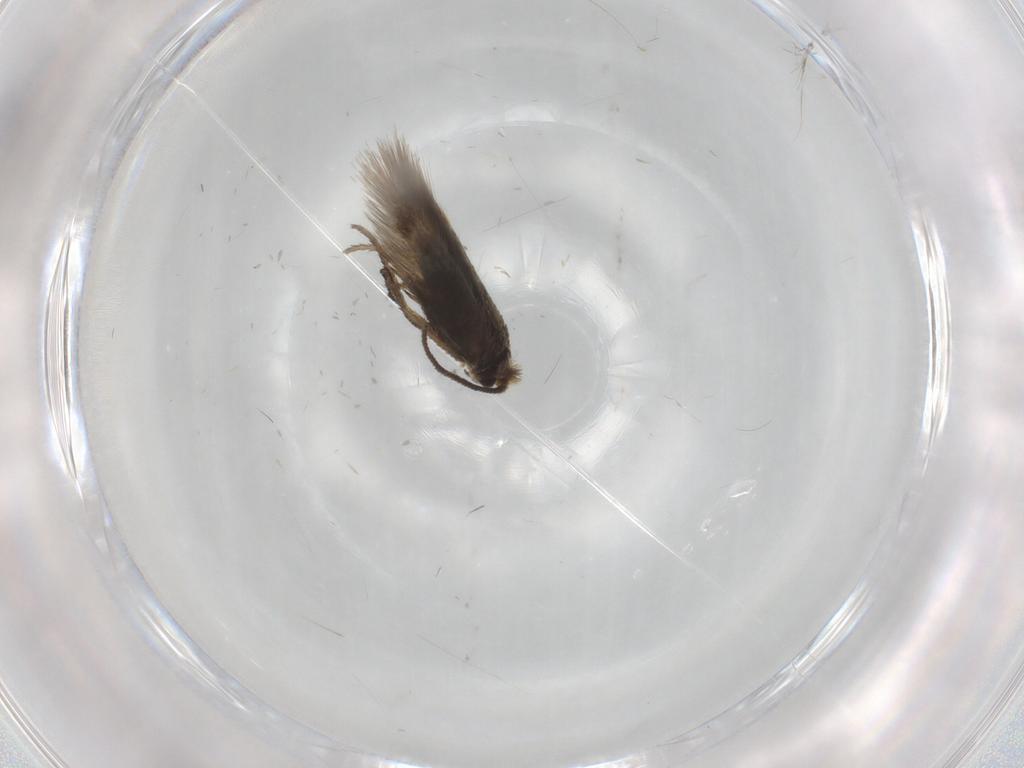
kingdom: Animalia
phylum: Arthropoda
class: Insecta
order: Lepidoptera
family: Nepticulidae
